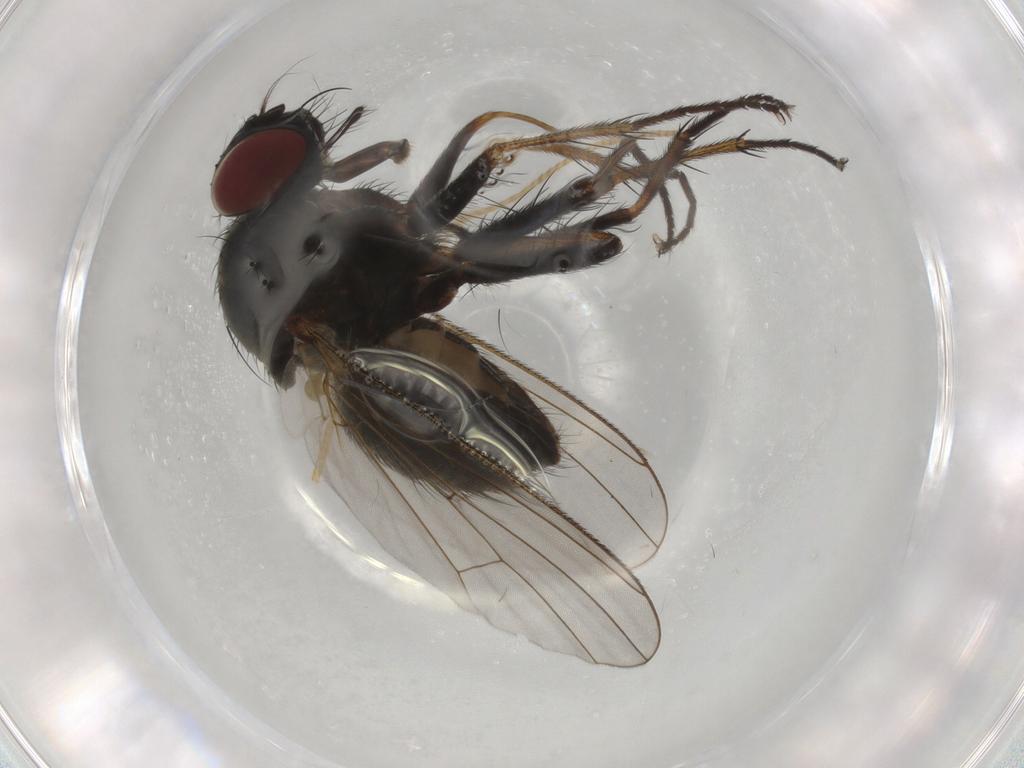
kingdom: Animalia
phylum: Arthropoda
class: Insecta
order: Diptera
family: Muscidae
